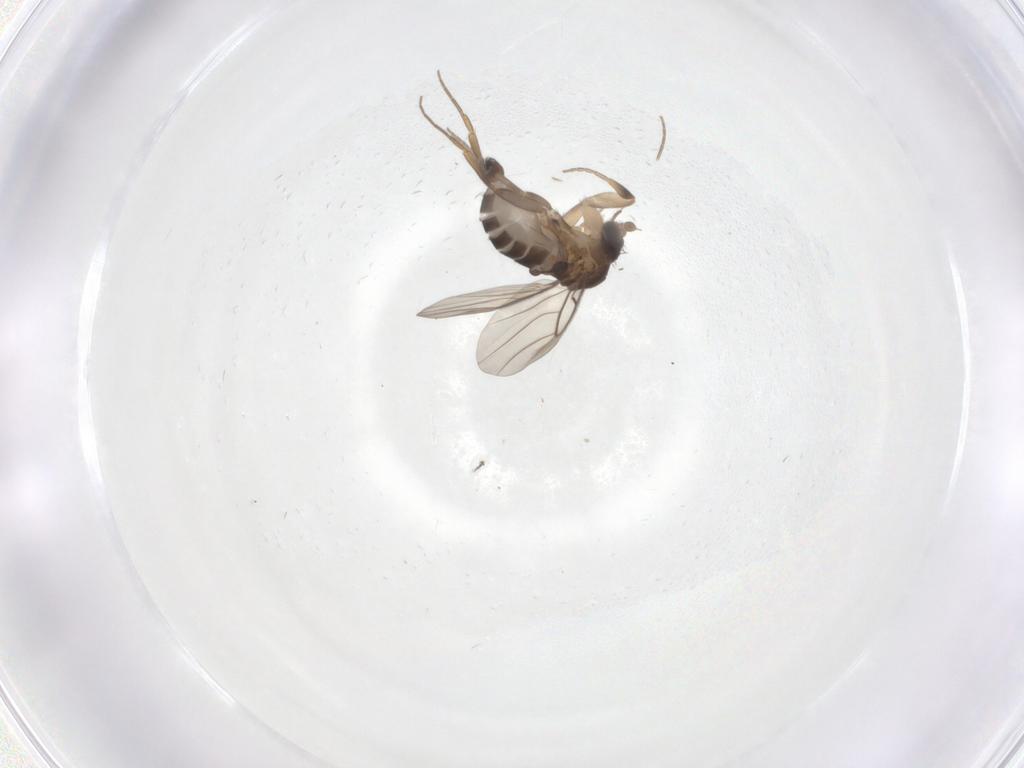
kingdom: Animalia
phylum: Arthropoda
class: Insecta
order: Diptera
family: Phoridae
